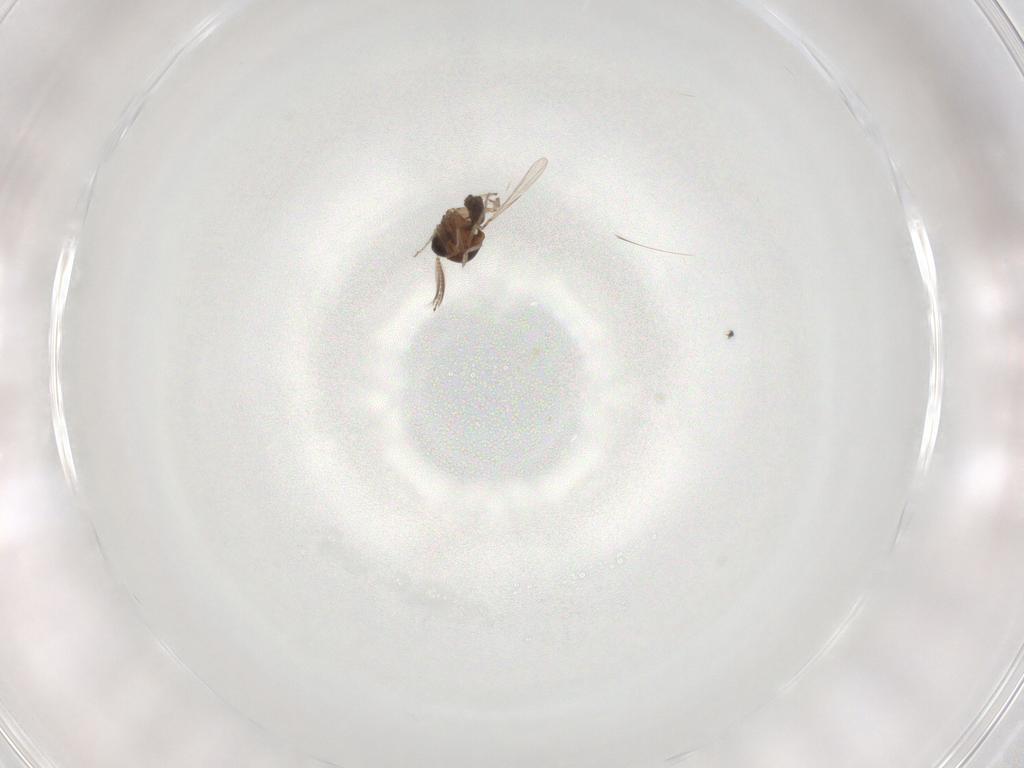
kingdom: Animalia
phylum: Arthropoda
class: Insecta
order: Diptera
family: Ceratopogonidae
